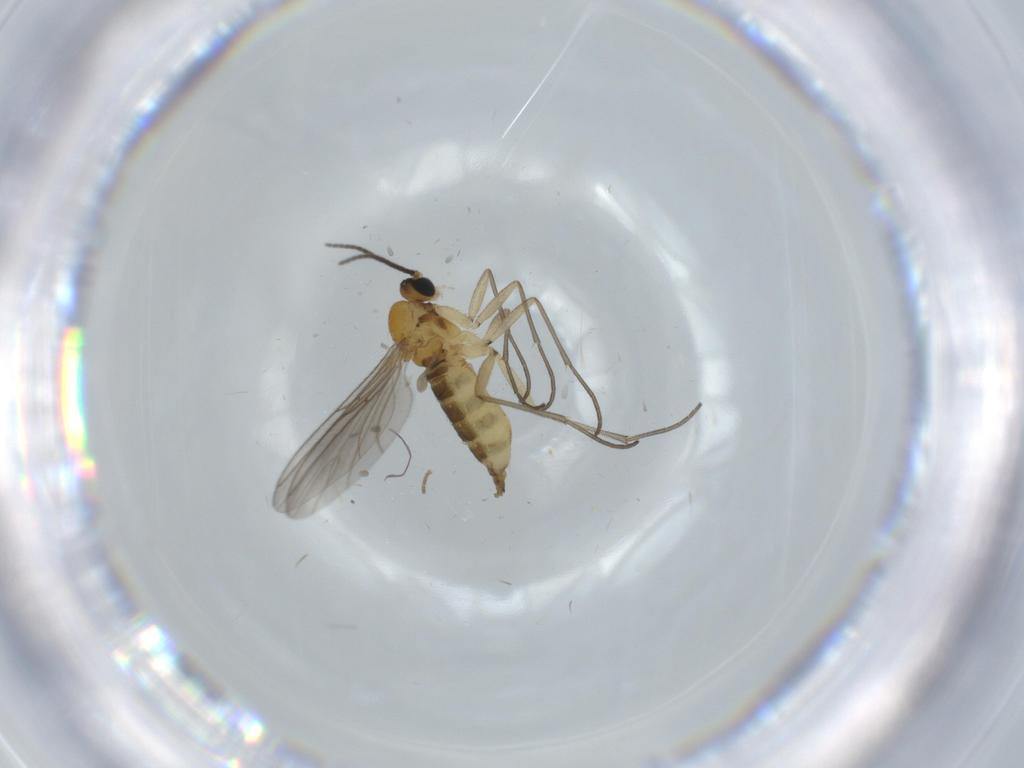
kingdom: Animalia
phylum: Arthropoda
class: Insecta
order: Diptera
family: Cecidomyiidae
